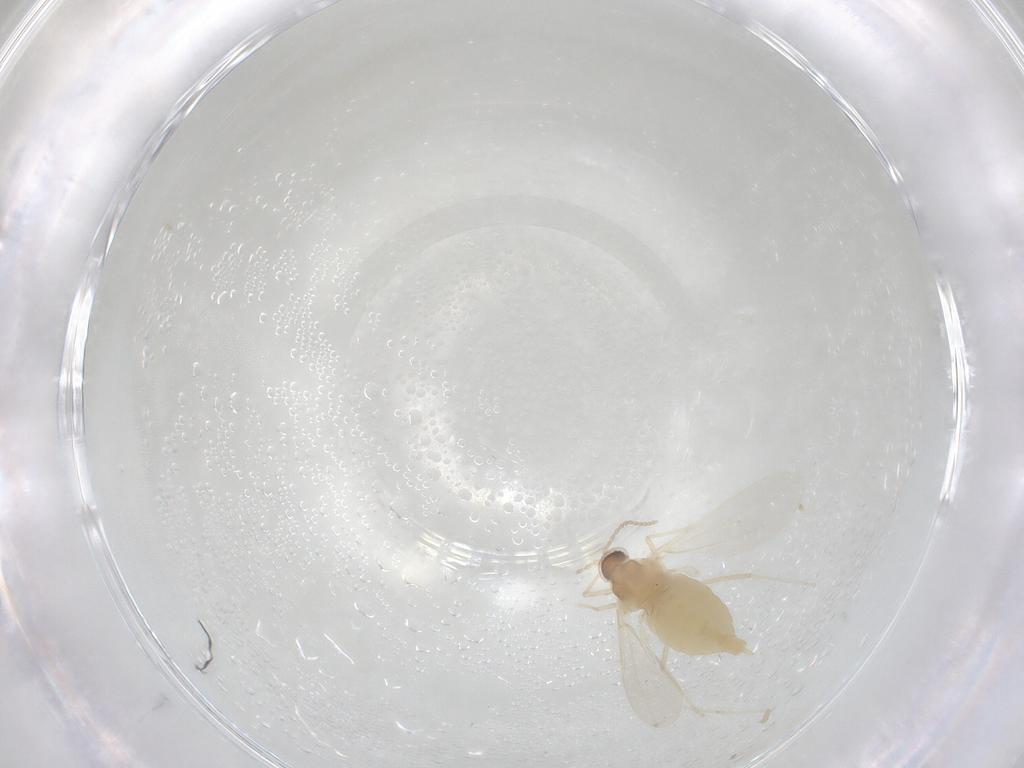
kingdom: Animalia
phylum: Arthropoda
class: Insecta
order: Diptera
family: Cecidomyiidae
